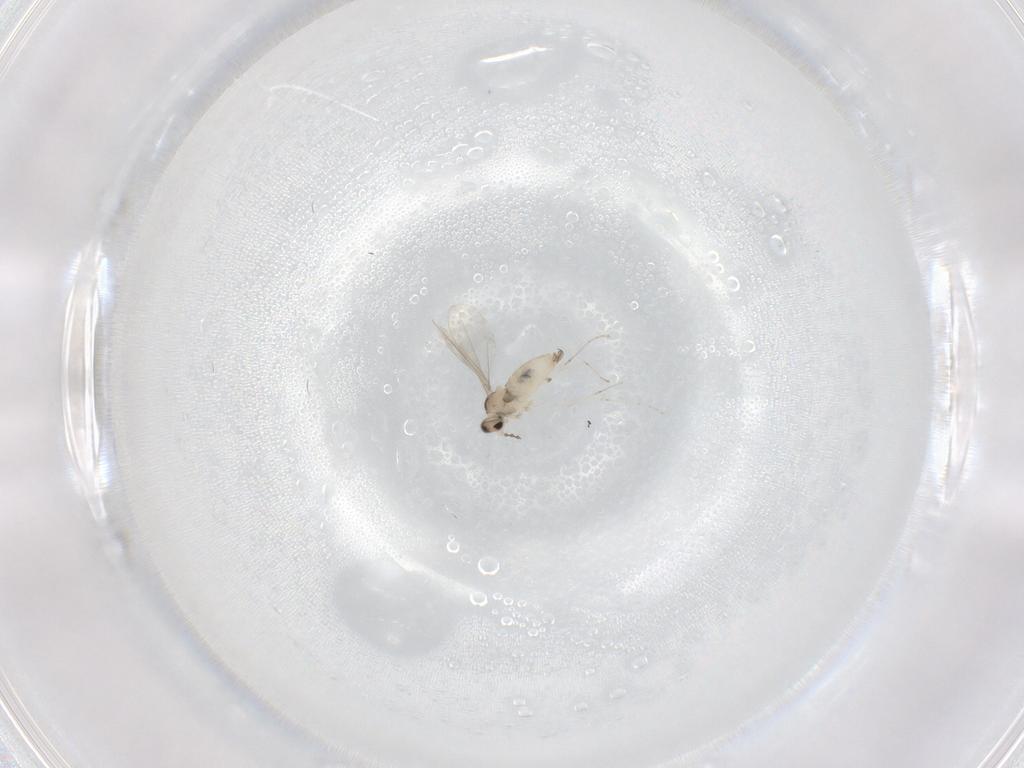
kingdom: Animalia
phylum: Arthropoda
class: Insecta
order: Diptera
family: Cecidomyiidae
